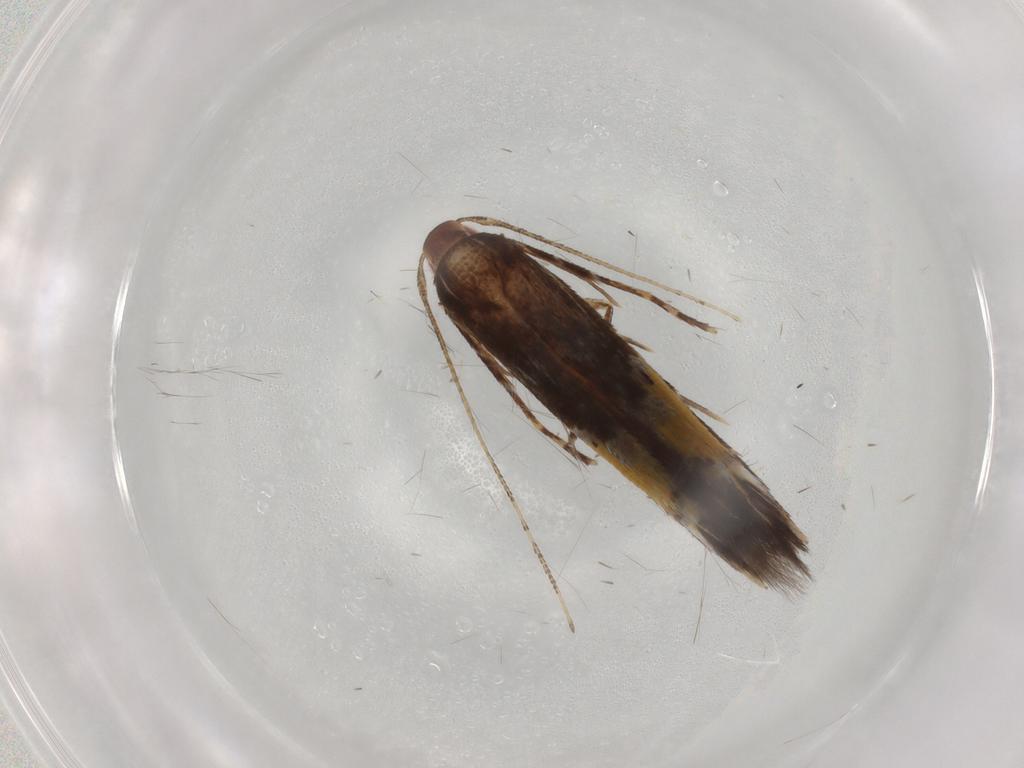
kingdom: Animalia
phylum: Arthropoda
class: Insecta
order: Lepidoptera
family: Cosmopterigidae
